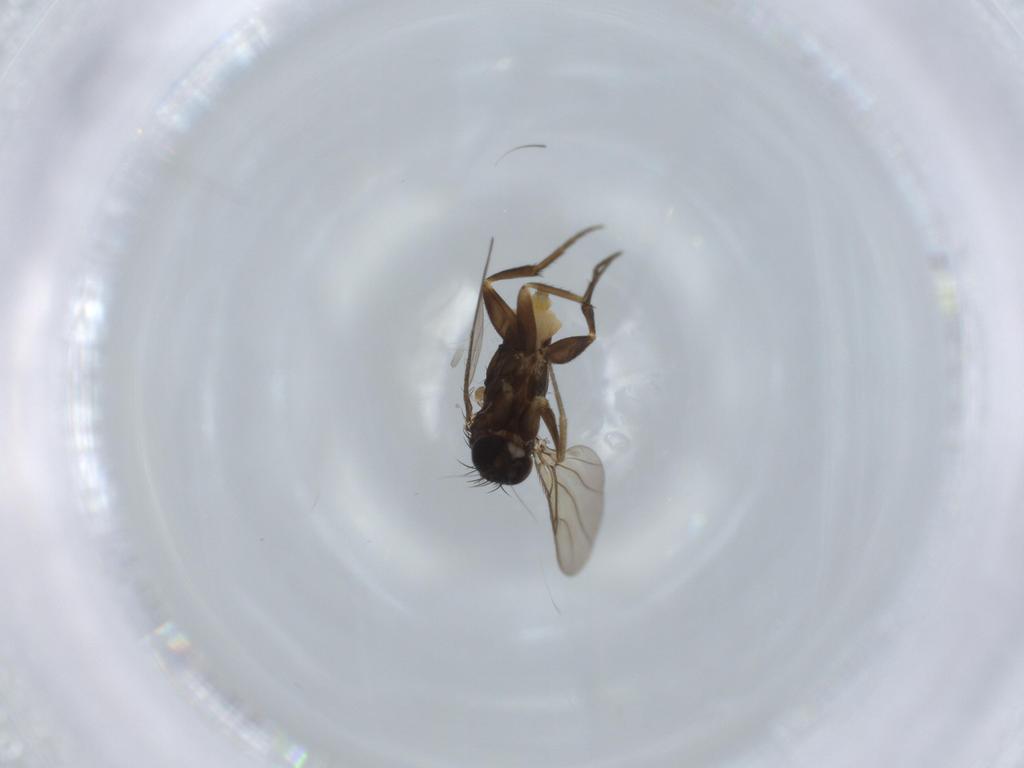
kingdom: Animalia
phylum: Arthropoda
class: Insecta
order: Diptera
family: Phoridae
